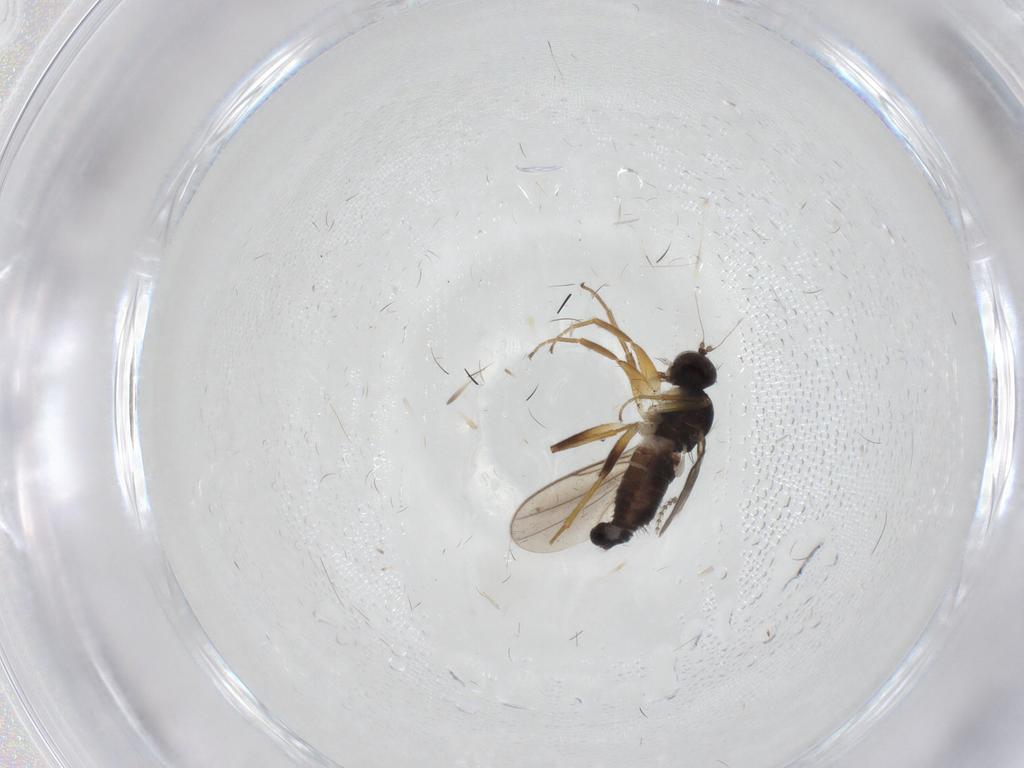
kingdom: Animalia
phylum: Arthropoda
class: Insecta
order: Diptera
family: Hybotidae
